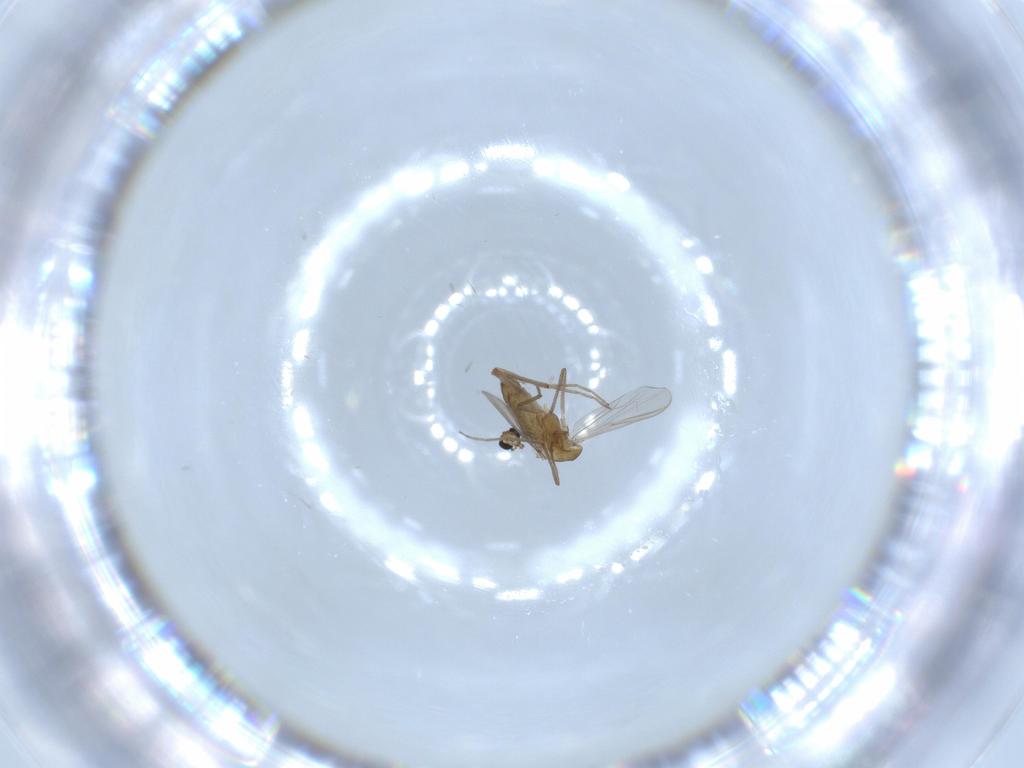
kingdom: Animalia
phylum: Arthropoda
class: Insecta
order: Diptera
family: Chironomidae
